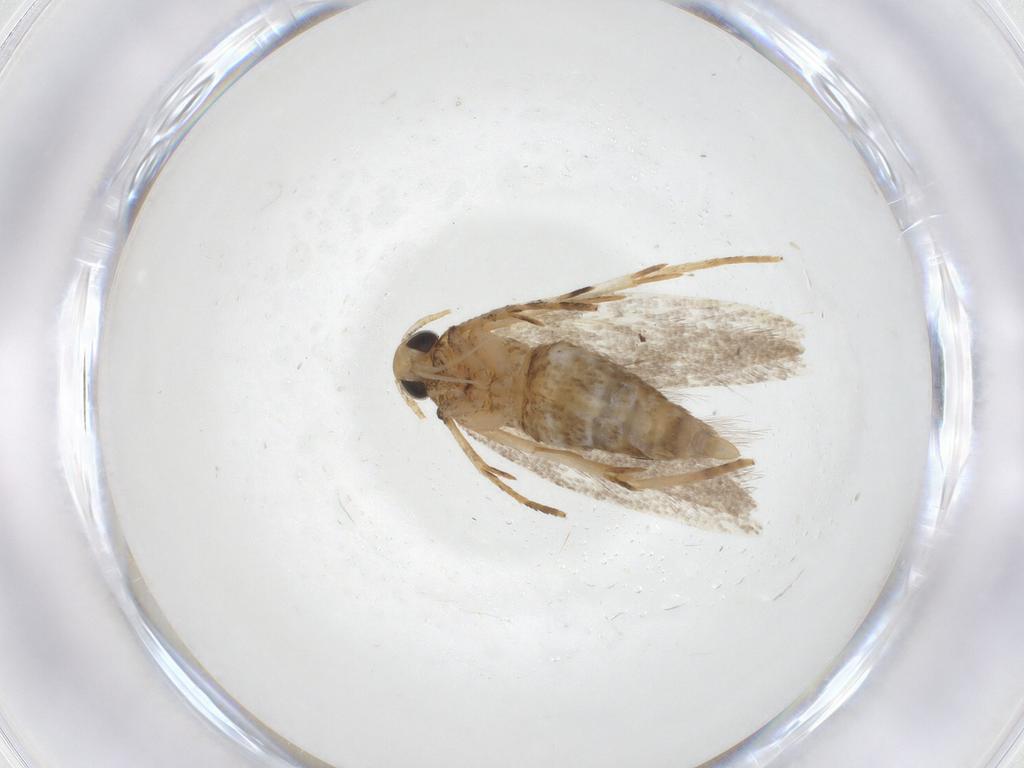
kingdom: Animalia
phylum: Arthropoda
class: Insecta
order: Lepidoptera
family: Oecophoridae
